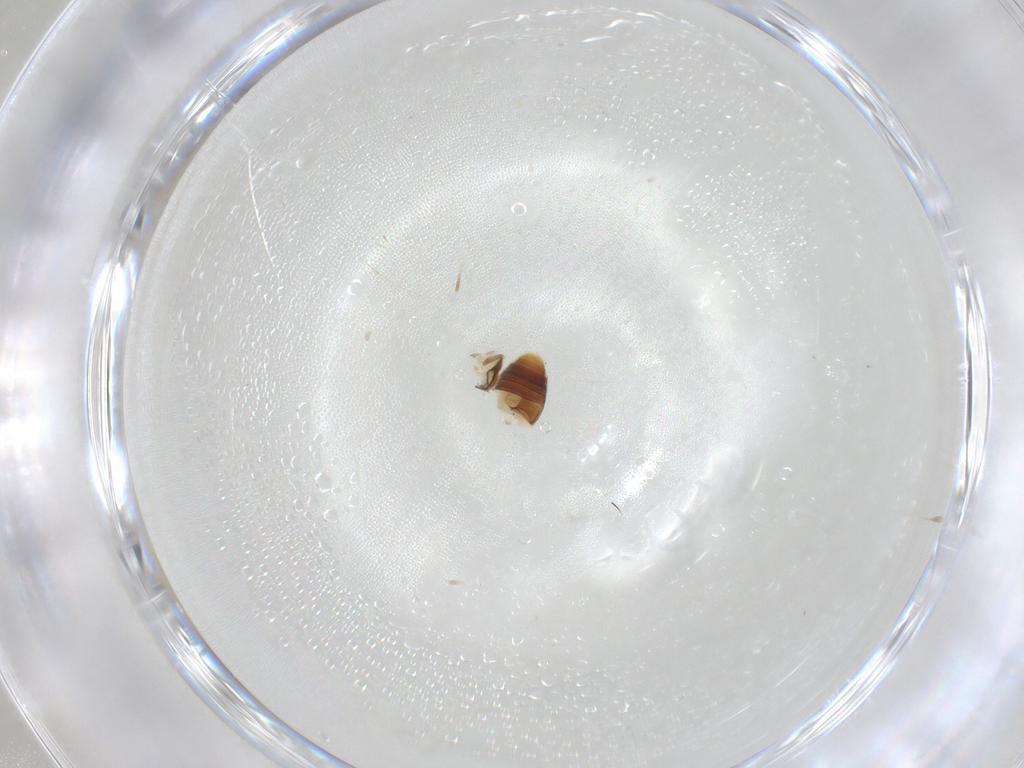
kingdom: Animalia
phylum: Arthropoda
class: Insecta
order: Coleoptera
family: Corylophidae
